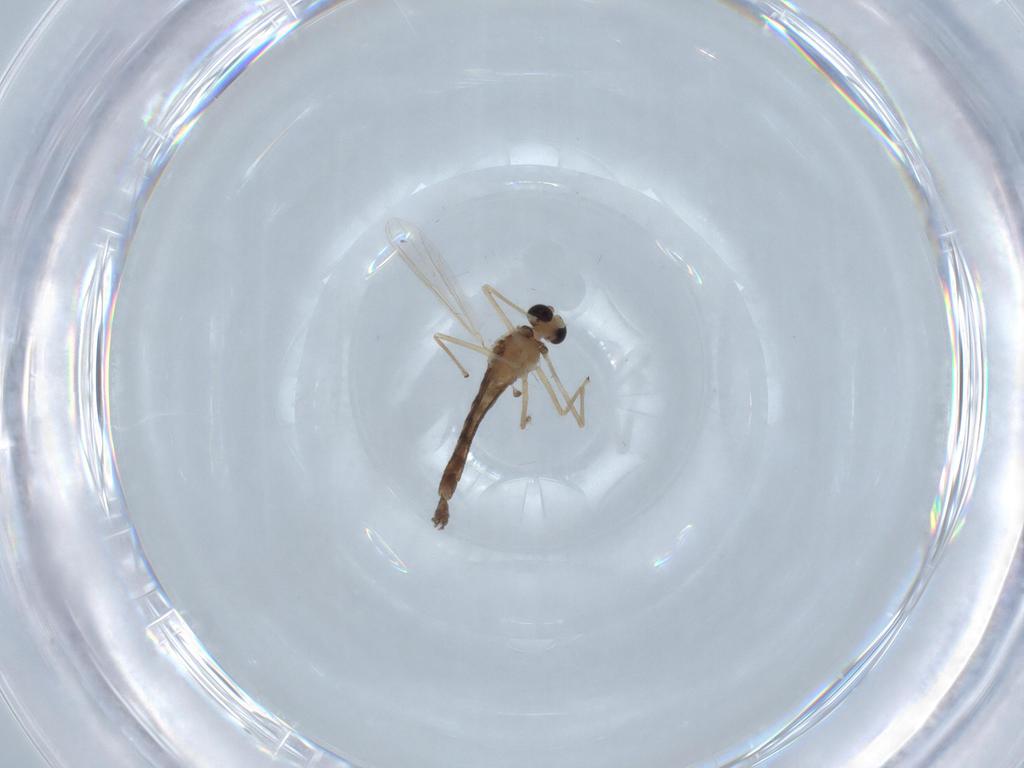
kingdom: Animalia
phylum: Arthropoda
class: Insecta
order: Diptera
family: Chironomidae
